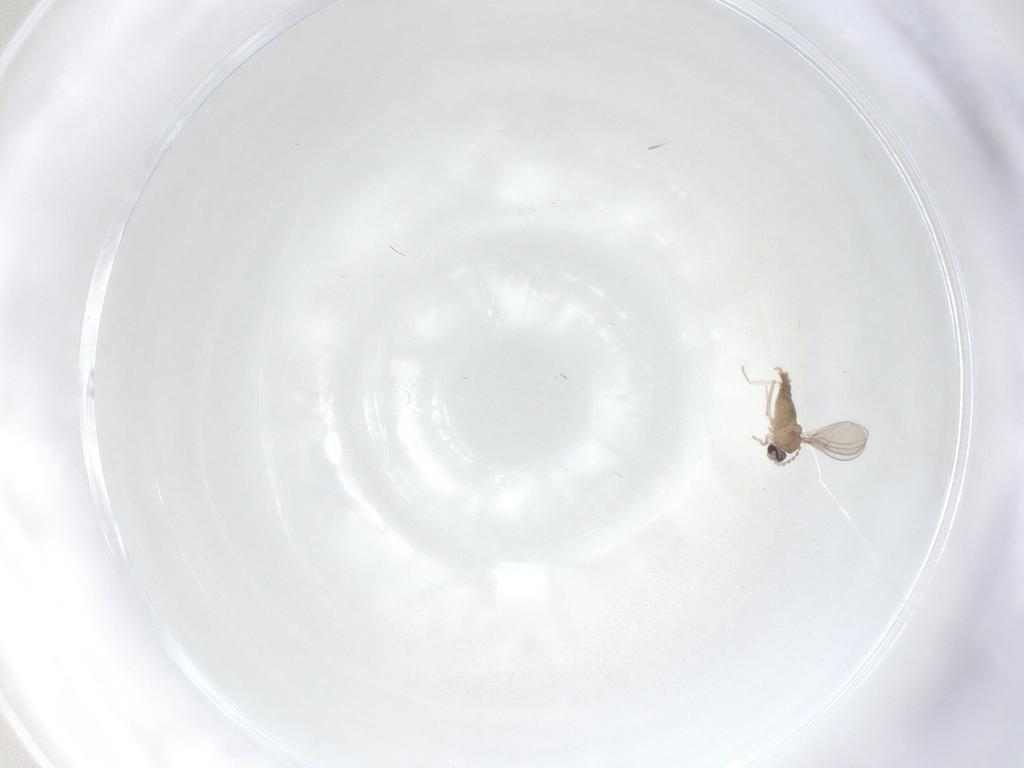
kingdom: Animalia
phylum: Arthropoda
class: Insecta
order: Diptera
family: Cecidomyiidae
